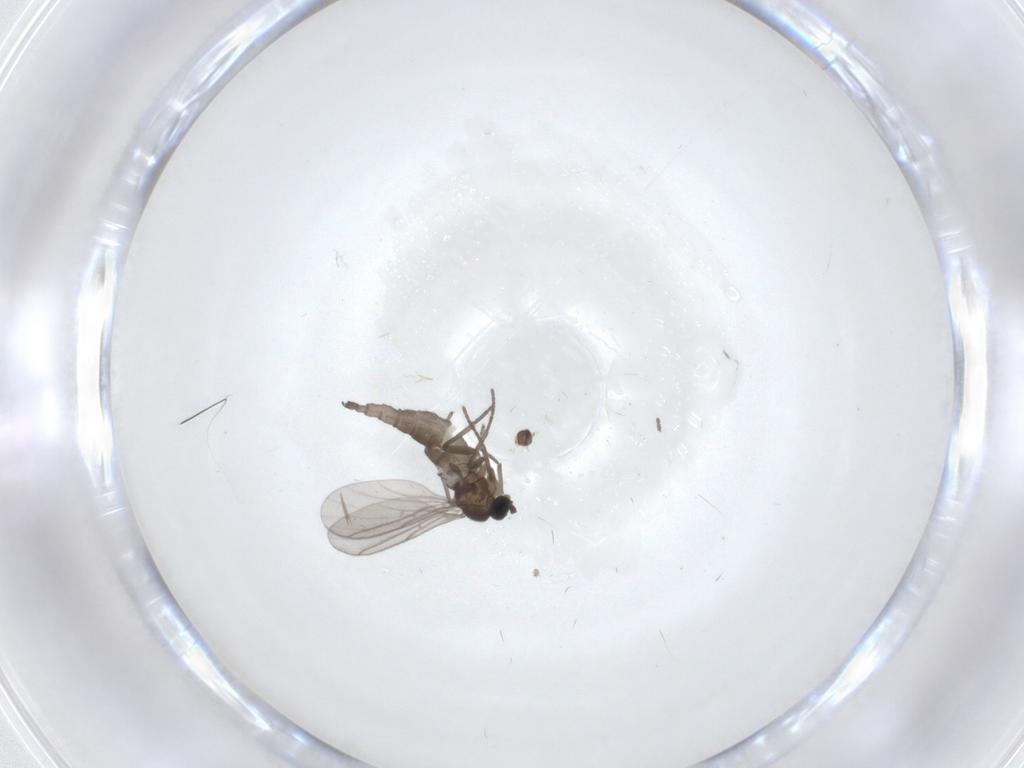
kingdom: Animalia
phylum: Arthropoda
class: Insecta
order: Diptera
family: Cecidomyiidae
